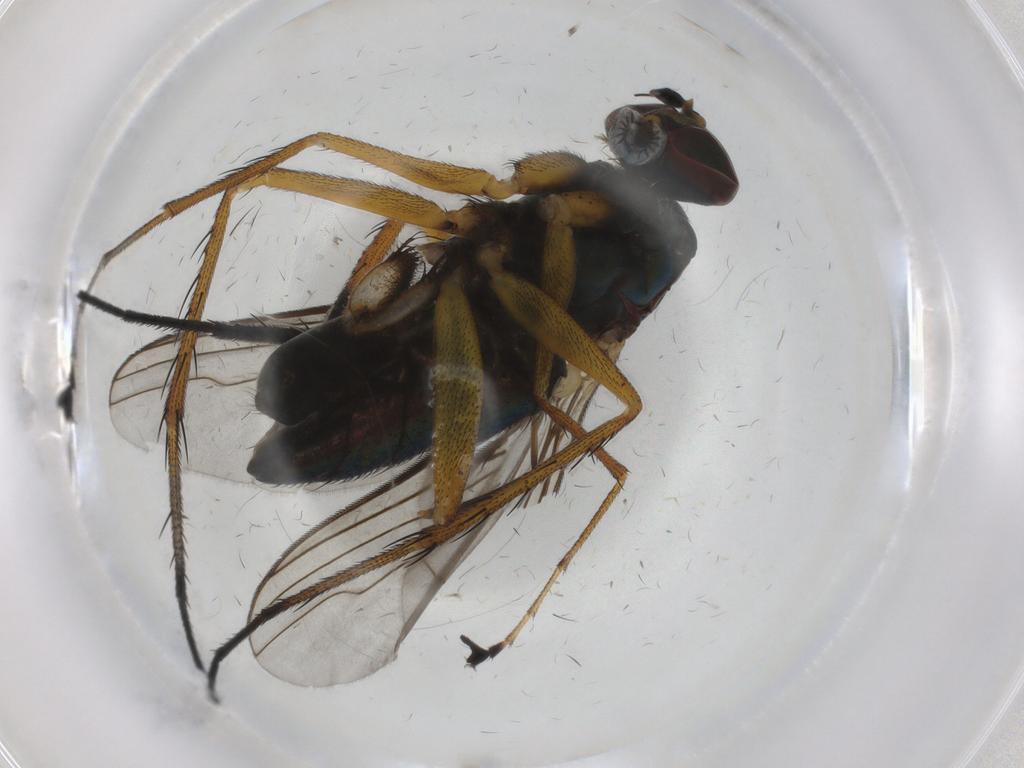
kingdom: Animalia
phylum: Arthropoda
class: Insecta
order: Diptera
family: Dolichopodidae
